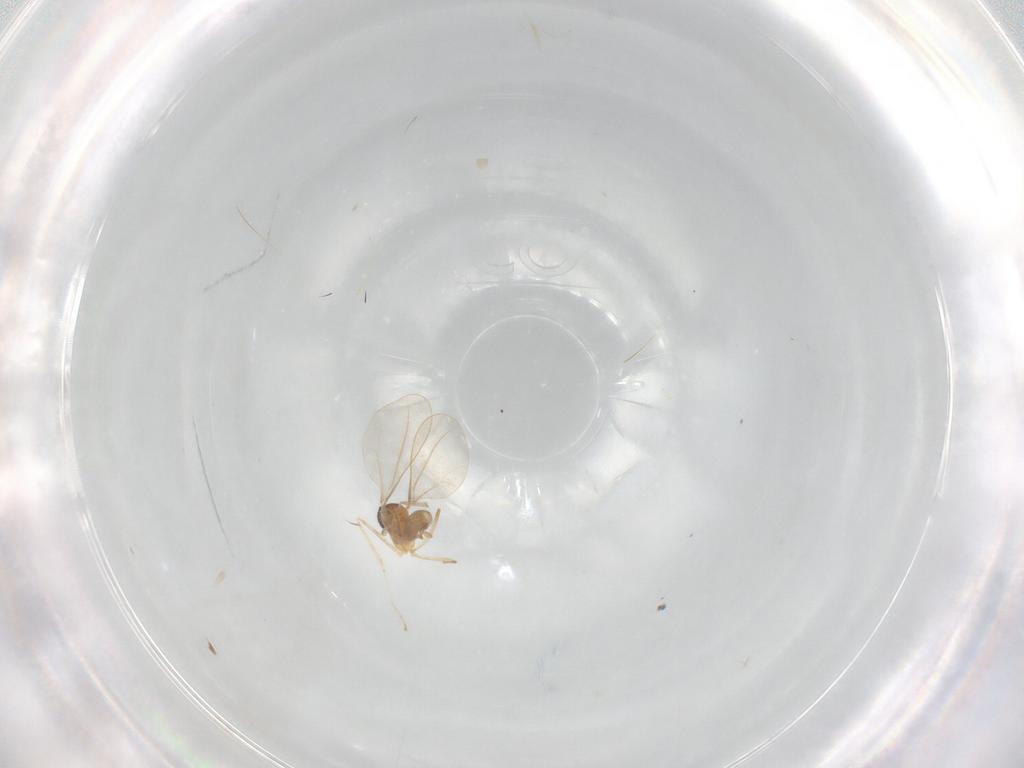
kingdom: Animalia
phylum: Arthropoda
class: Insecta
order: Diptera
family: Cecidomyiidae
